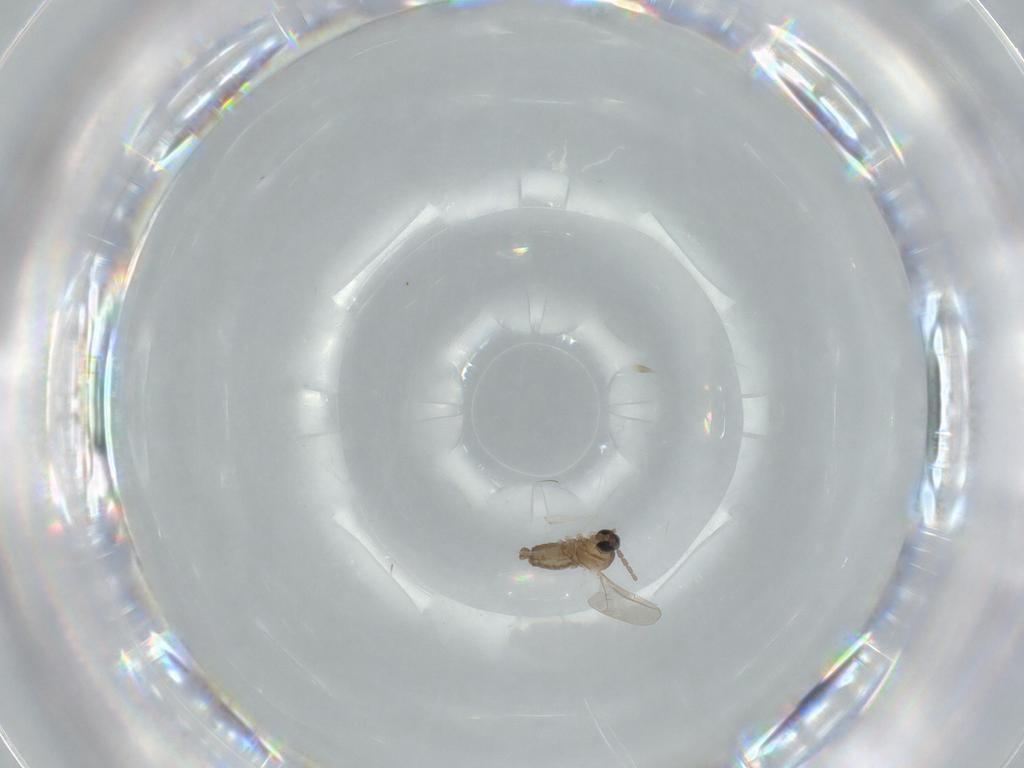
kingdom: Animalia
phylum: Arthropoda
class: Insecta
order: Diptera
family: Cecidomyiidae
